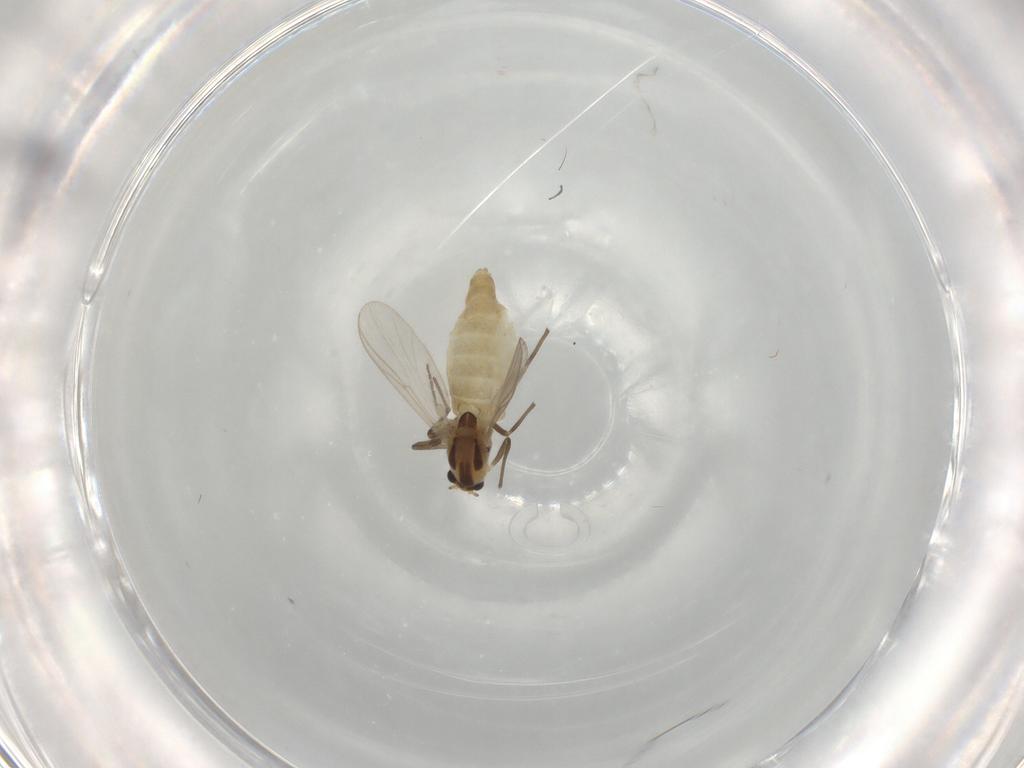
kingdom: Animalia
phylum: Arthropoda
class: Insecta
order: Diptera
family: Chironomidae
